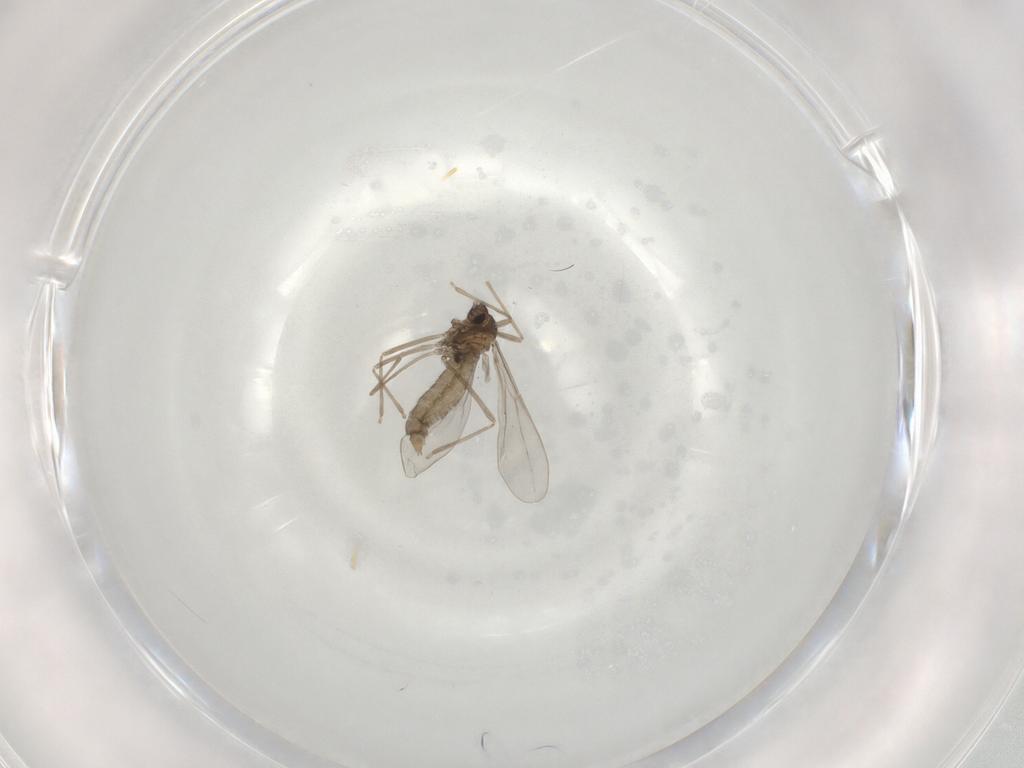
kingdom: Animalia
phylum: Arthropoda
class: Insecta
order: Diptera
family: Cecidomyiidae
